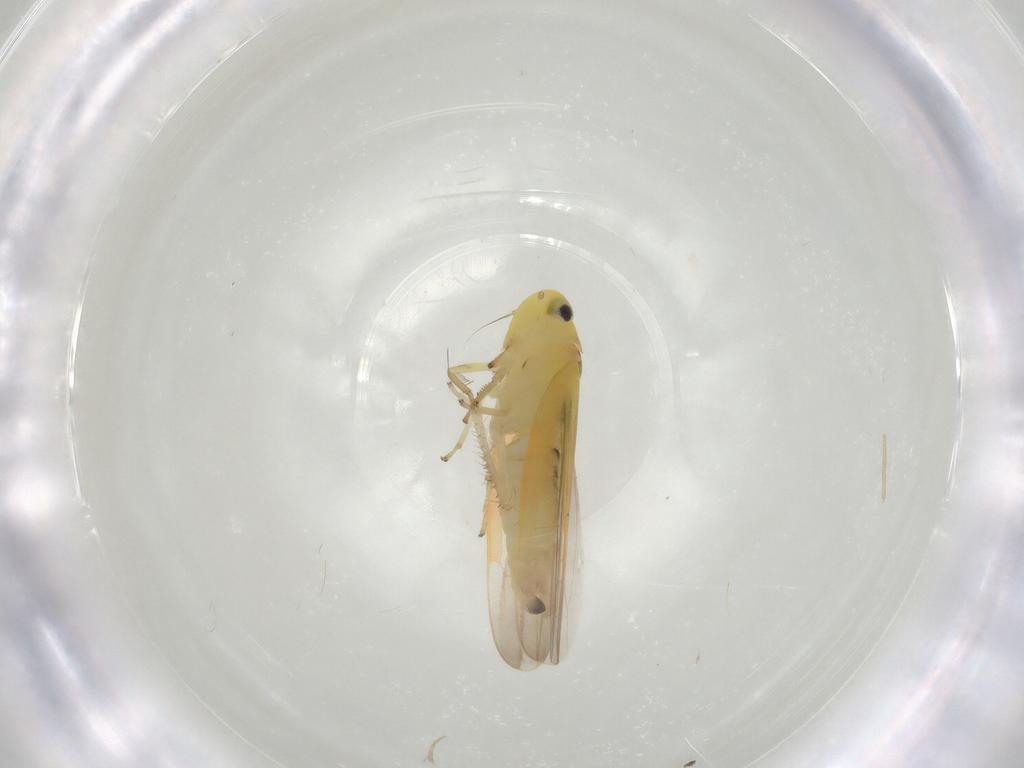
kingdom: Animalia
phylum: Arthropoda
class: Insecta
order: Hemiptera
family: Cicadellidae
